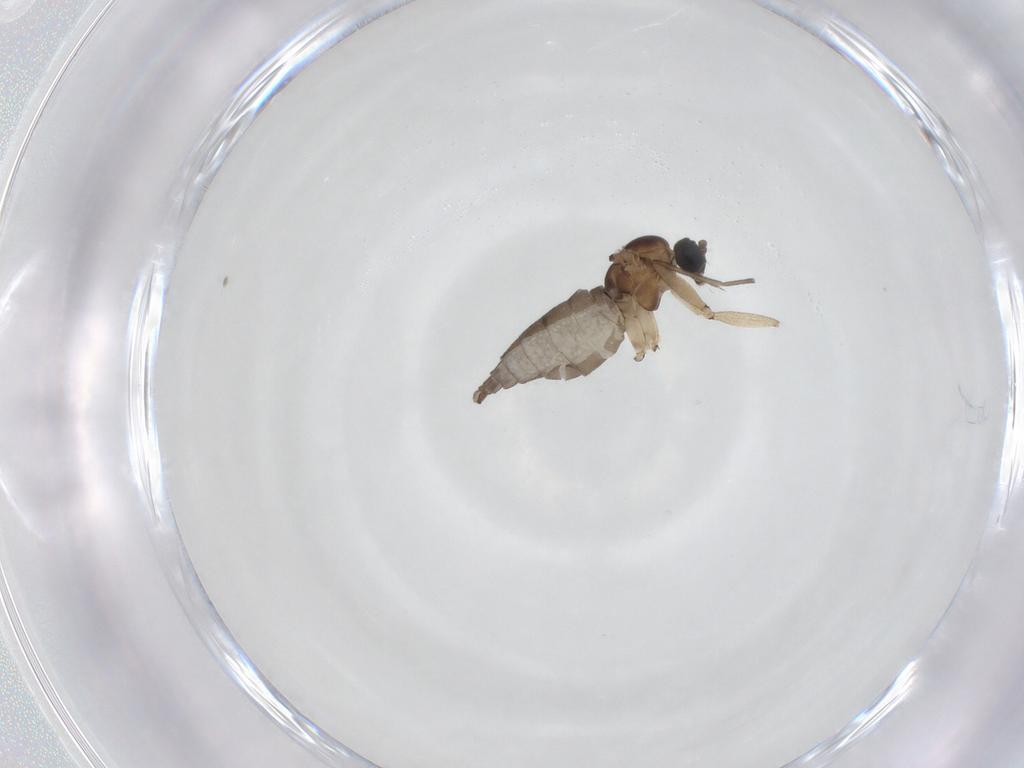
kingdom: Animalia
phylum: Arthropoda
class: Insecta
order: Diptera
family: Sciaridae
